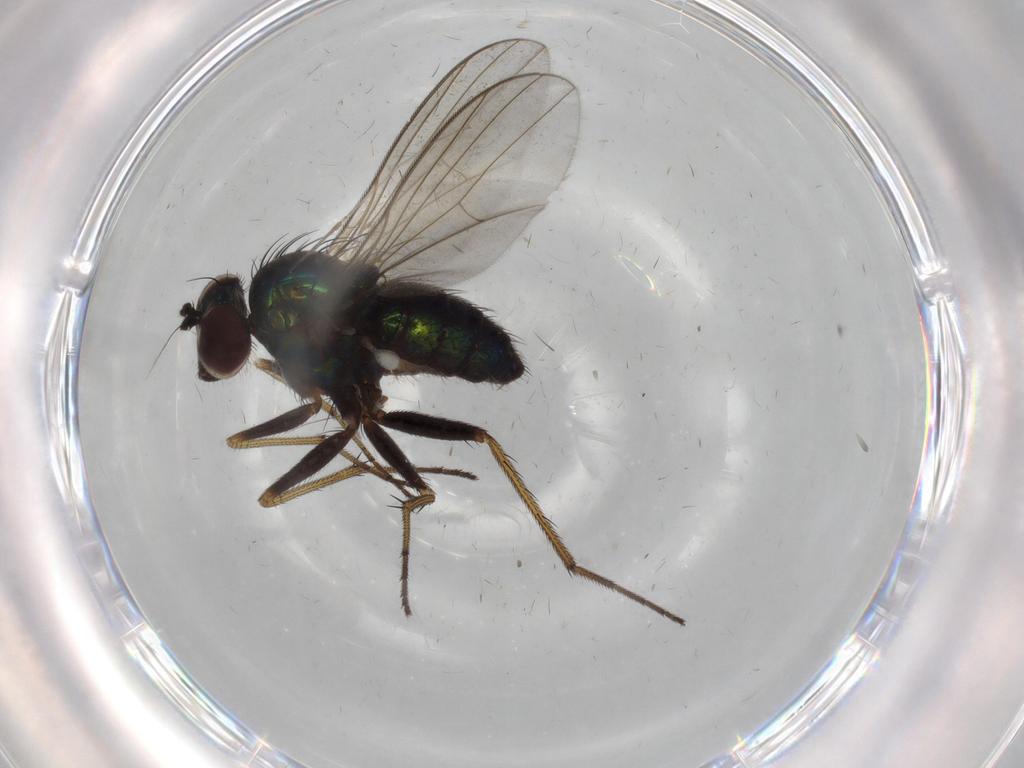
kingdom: Animalia
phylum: Arthropoda
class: Insecta
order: Diptera
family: Dolichopodidae
